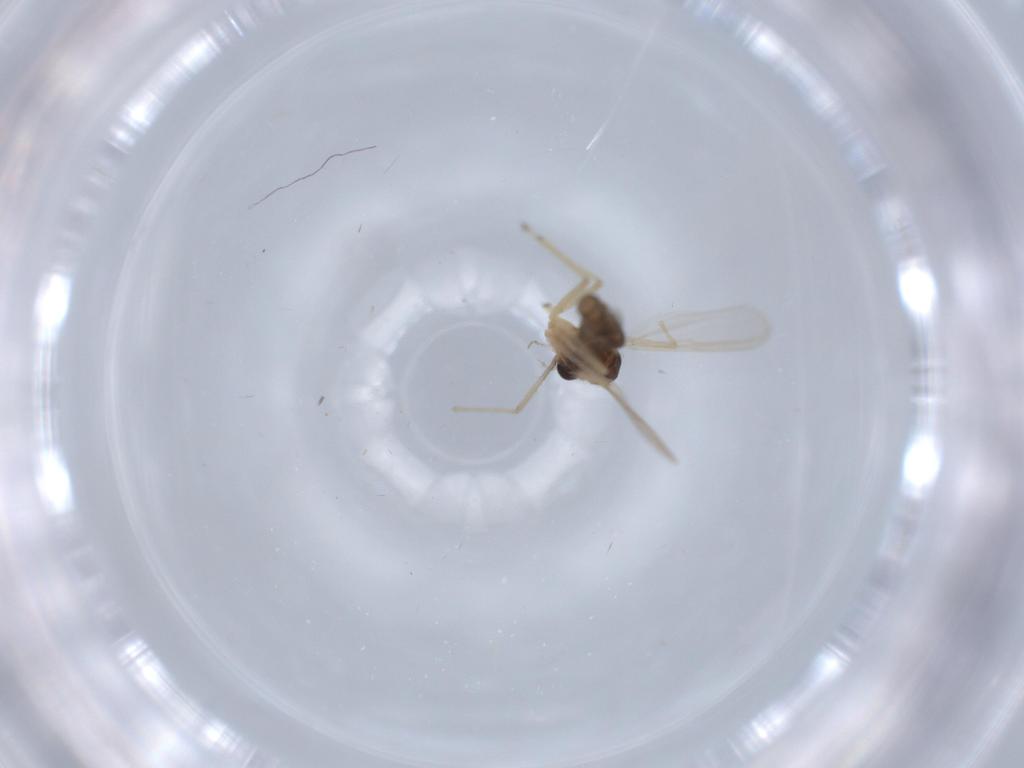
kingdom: Animalia
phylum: Arthropoda
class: Insecta
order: Diptera
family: Chironomidae
